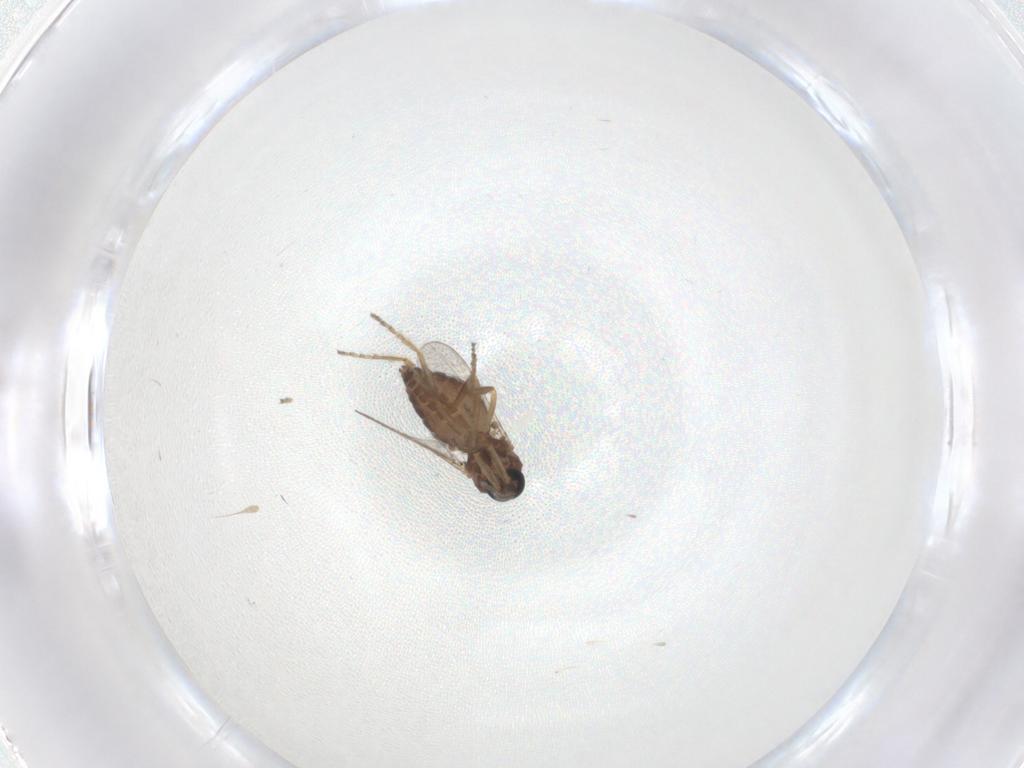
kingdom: Animalia
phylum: Arthropoda
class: Insecta
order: Diptera
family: Ceratopogonidae
